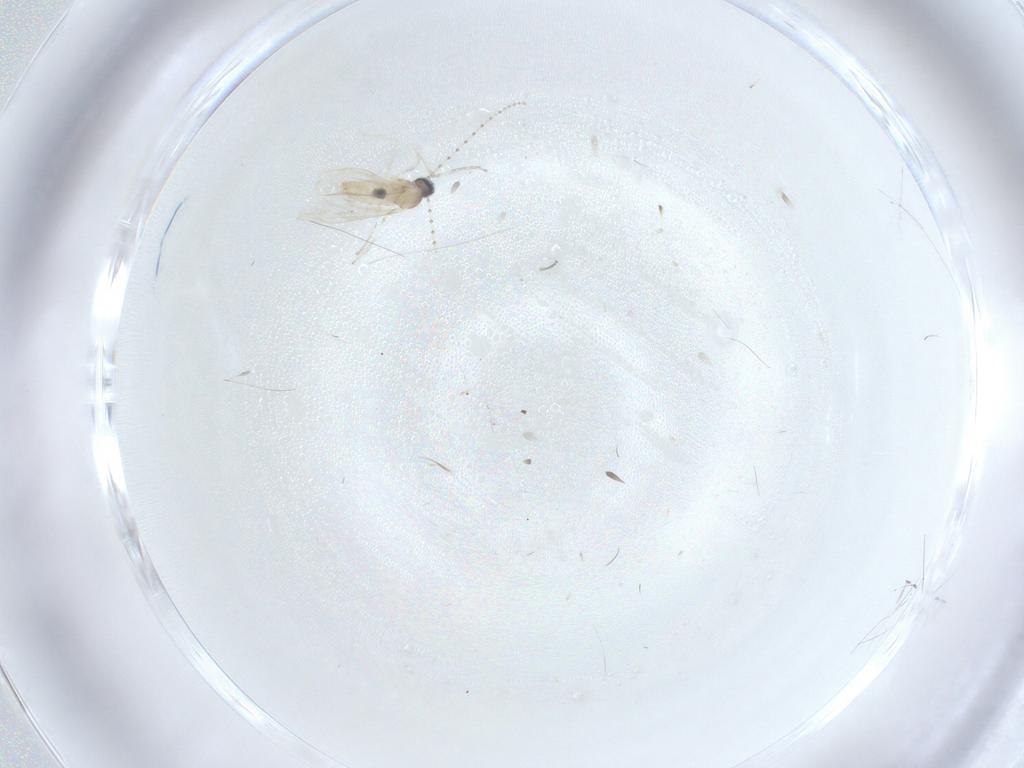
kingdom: Animalia
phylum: Arthropoda
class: Insecta
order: Diptera
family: Cecidomyiidae
